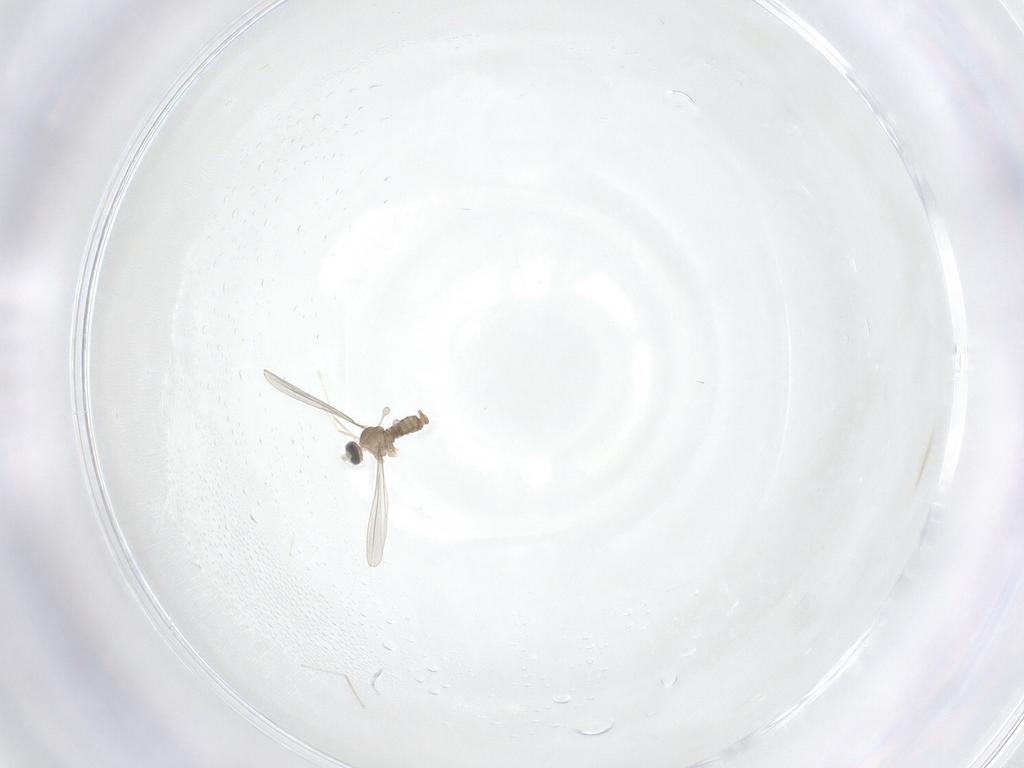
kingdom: Animalia
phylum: Arthropoda
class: Insecta
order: Diptera
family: Cecidomyiidae
